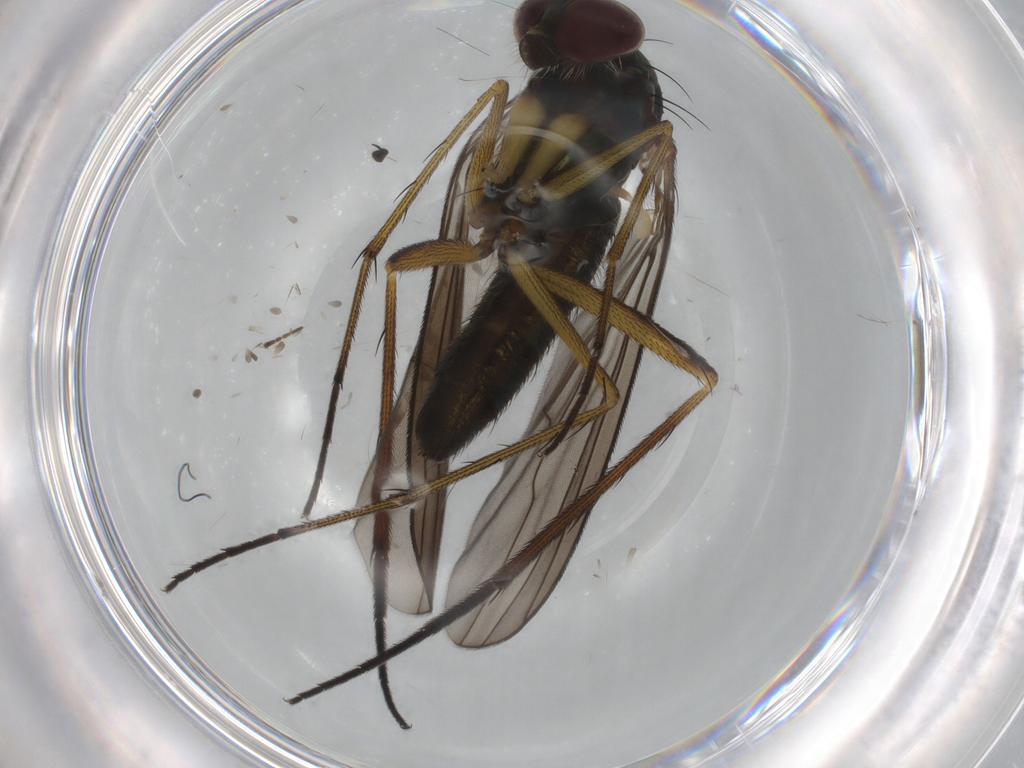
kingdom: Animalia
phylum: Arthropoda
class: Insecta
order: Diptera
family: Dolichopodidae
